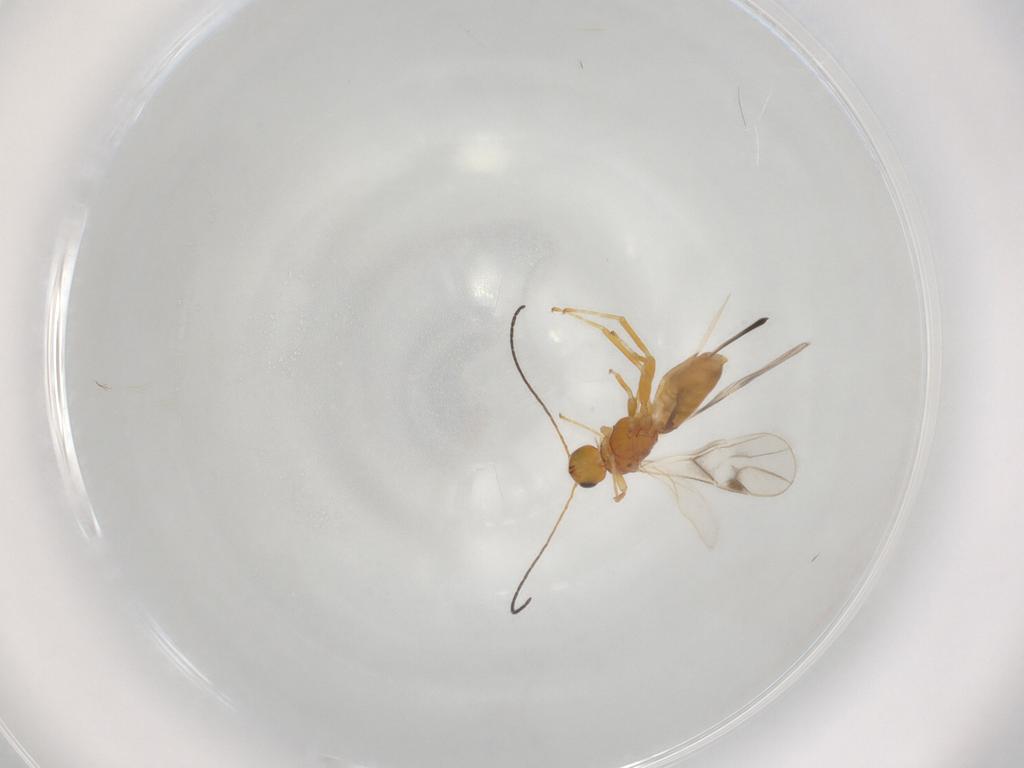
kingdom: Animalia
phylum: Arthropoda
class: Insecta
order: Hymenoptera
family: Braconidae
